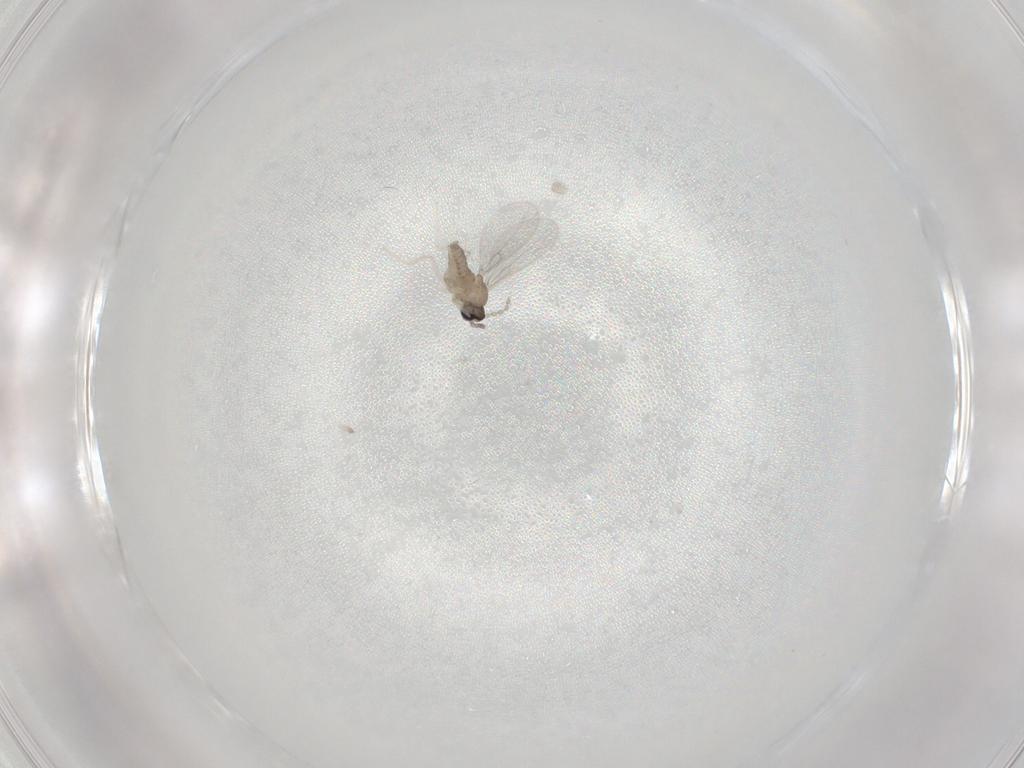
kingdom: Animalia
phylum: Arthropoda
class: Insecta
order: Diptera
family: Cecidomyiidae
